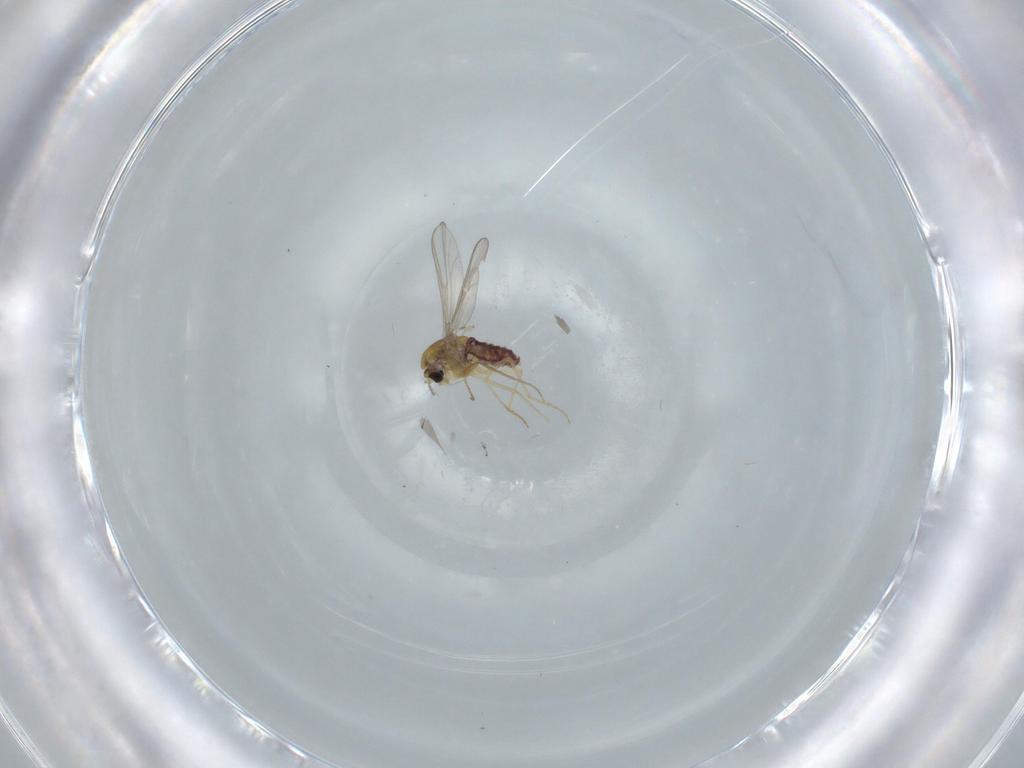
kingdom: Animalia
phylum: Arthropoda
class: Insecta
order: Diptera
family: Chironomidae
